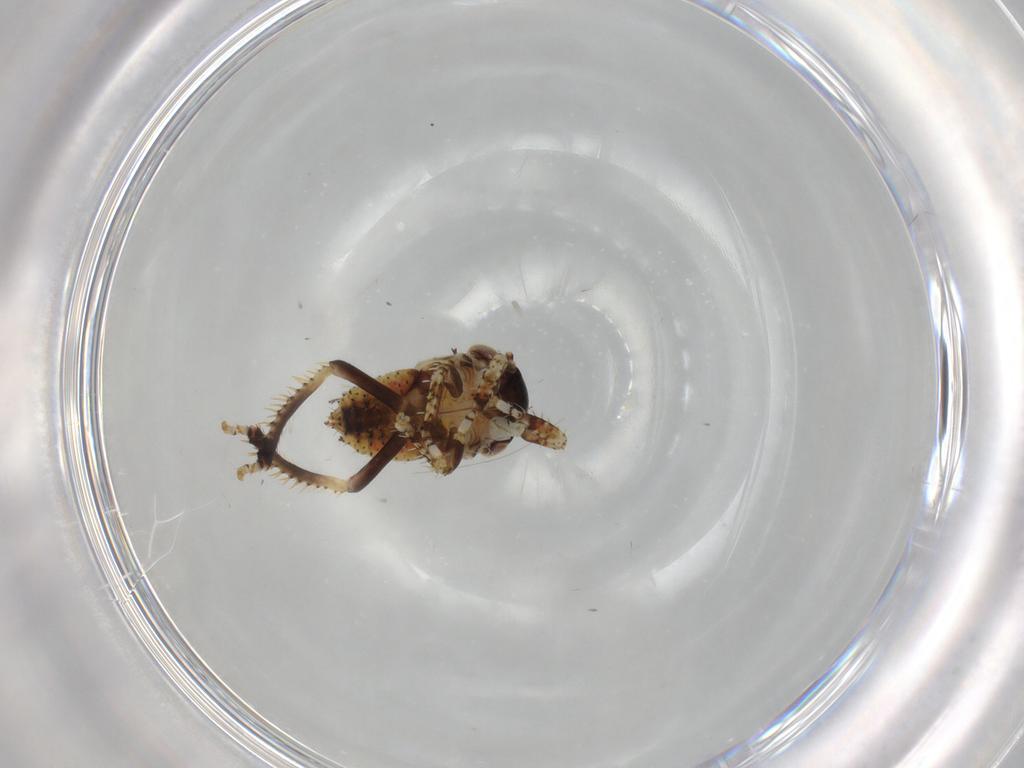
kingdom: Animalia
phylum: Arthropoda
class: Insecta
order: Hemiptera
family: Cicadellidae
